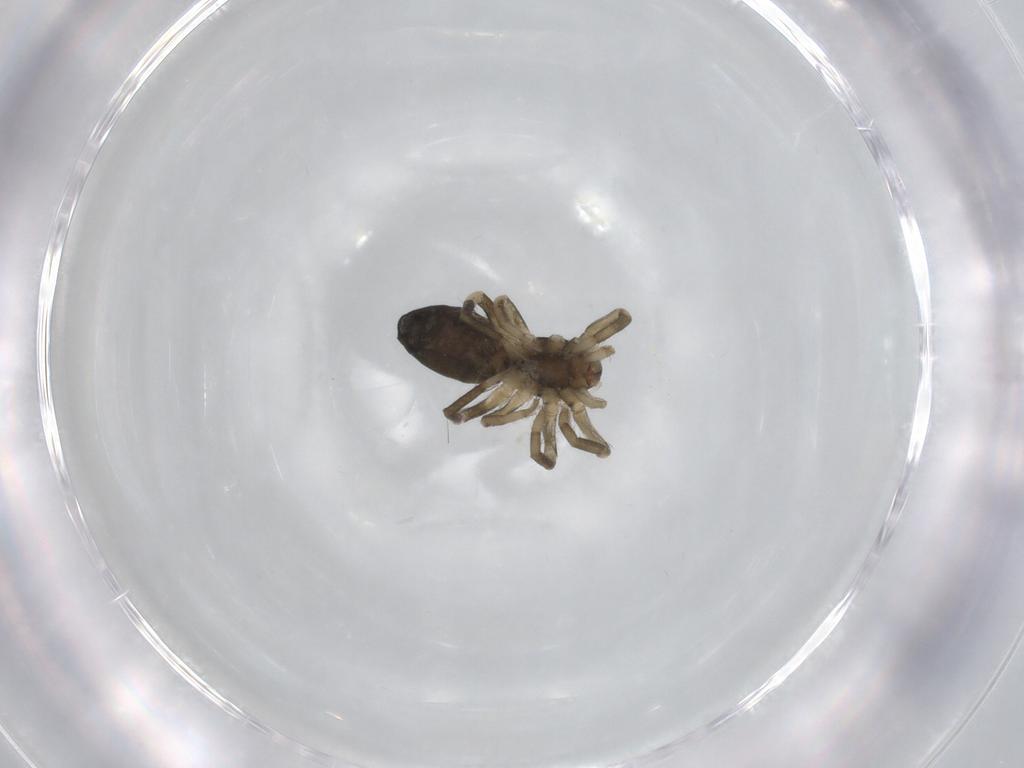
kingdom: Animalia
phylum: Arthropoda
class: Arachnida
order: Araneae
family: Gnaphosidae
